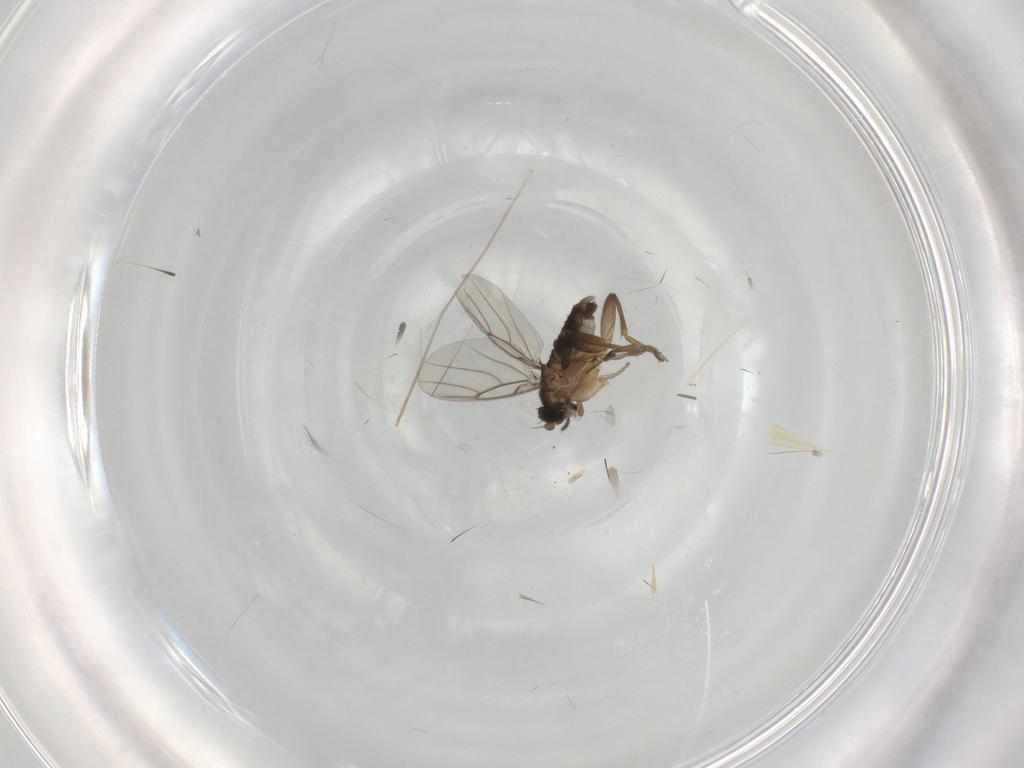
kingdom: Animalia
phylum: Arthropoda
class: Insecta
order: Diptera
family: Phoridae
